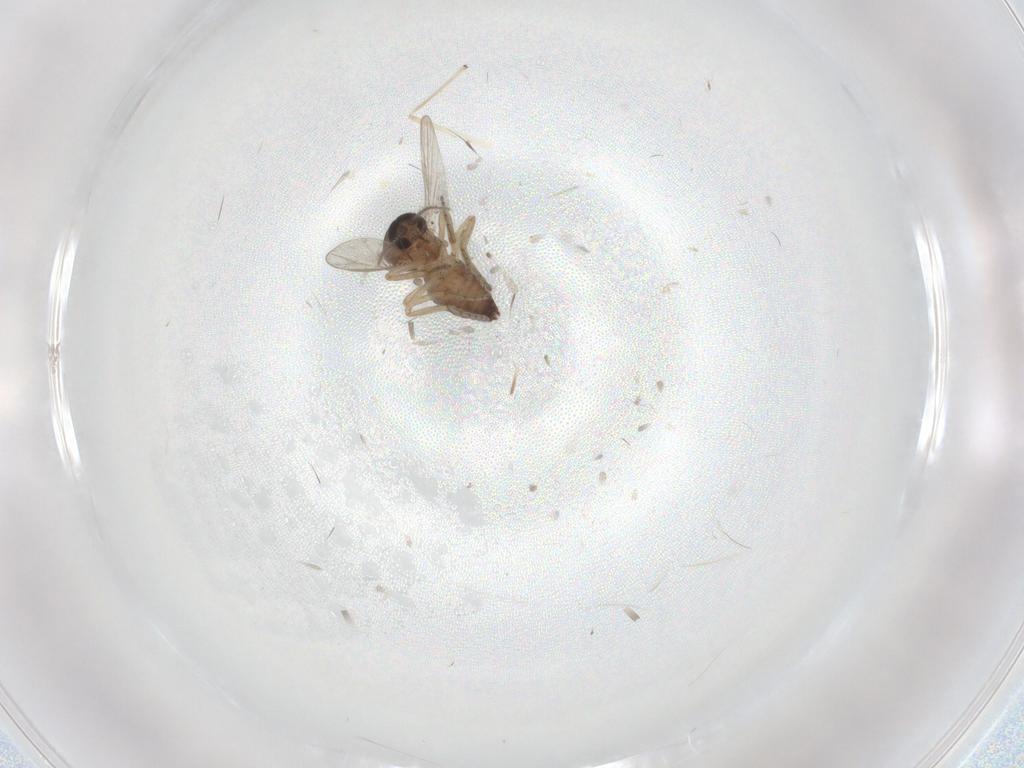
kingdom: Animalia
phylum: Arthropoda
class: Insecta
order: Diptera
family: Chironomidae
